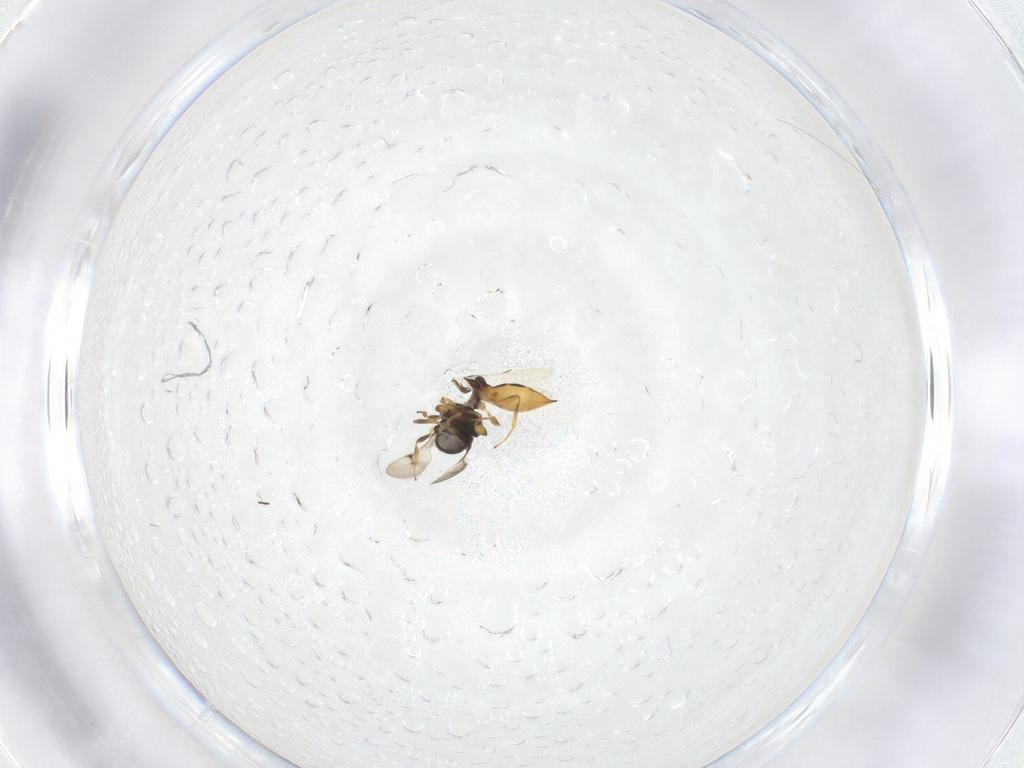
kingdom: Animalia
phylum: Arthropoda
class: Insecta
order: Hymenoptera
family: Scelionidae
